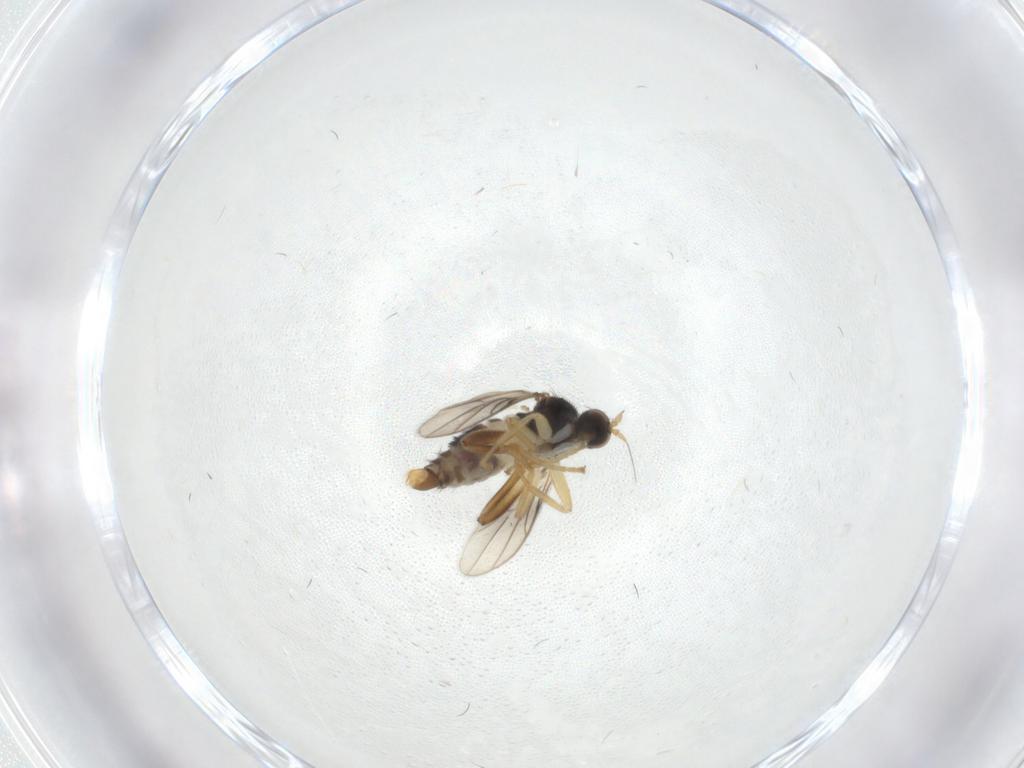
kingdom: Animalia
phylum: Arthropoda
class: Insecta
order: Diptera
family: Hybotidae
